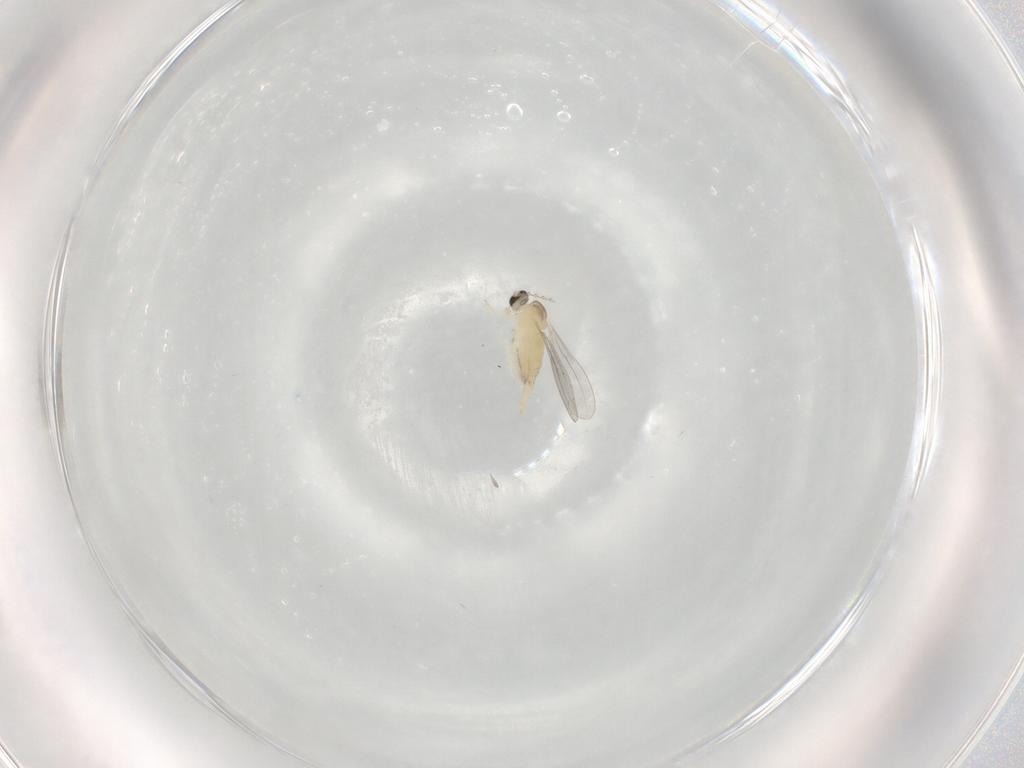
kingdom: Animalia
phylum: Arthropoda
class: Insecta
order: Diptera
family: Cecidomyiidae
